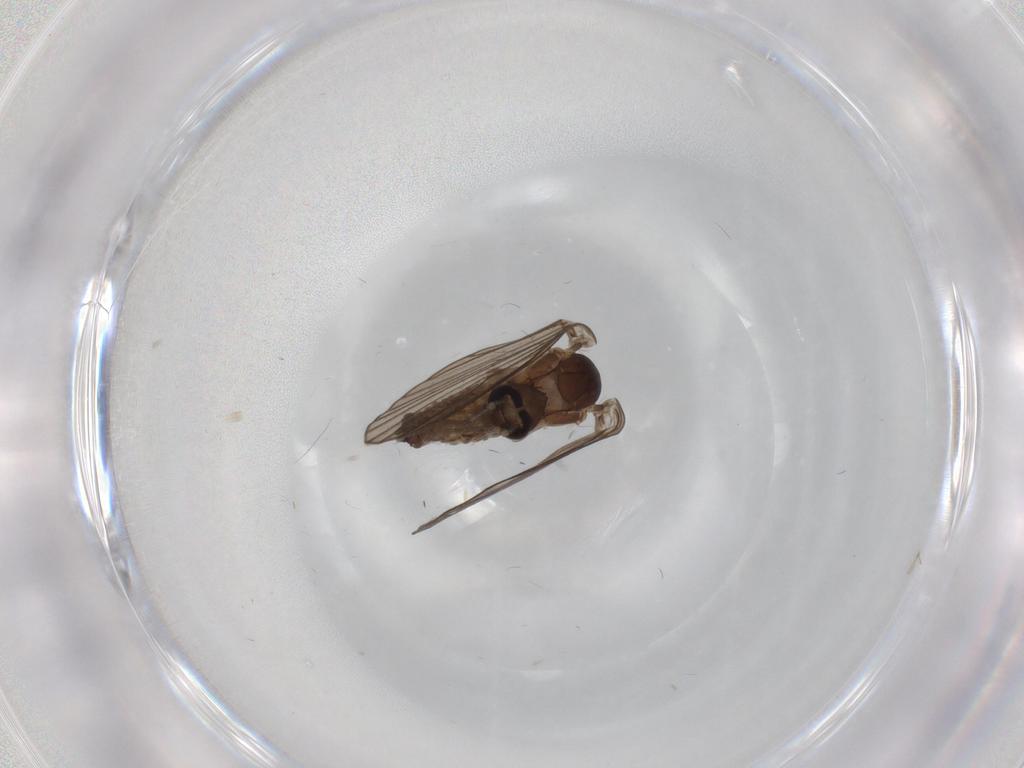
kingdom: Animalia
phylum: Arthropoda
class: Insecta
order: Diptera
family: Psychodidae
